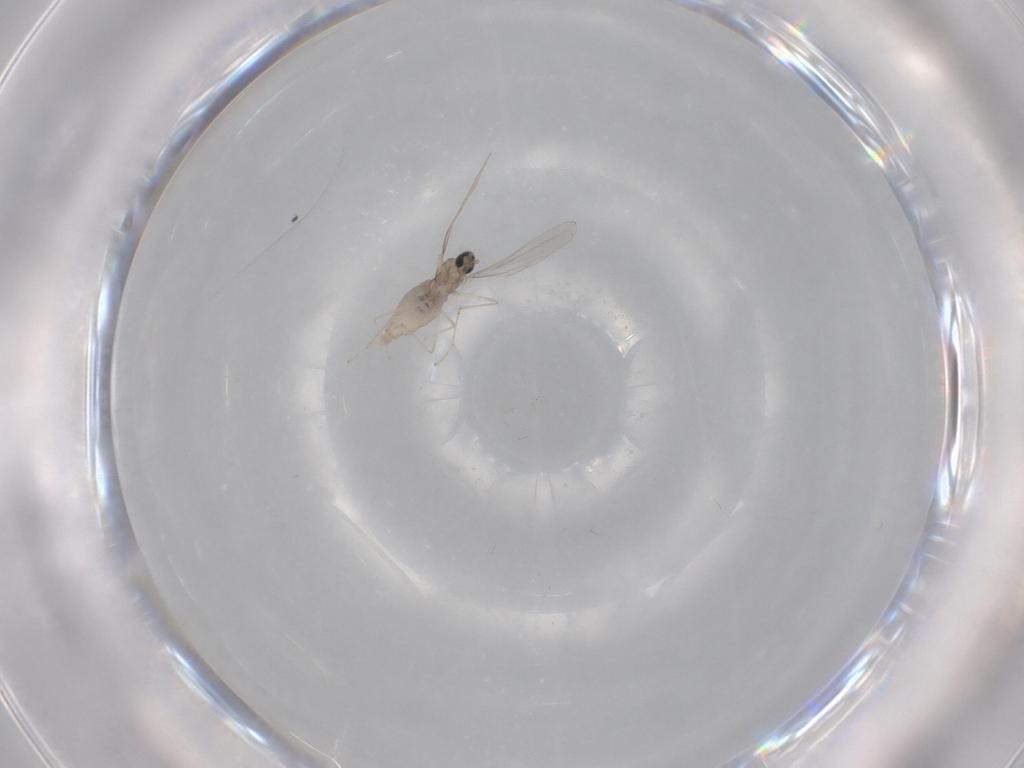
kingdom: Animalia
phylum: Arthropoda
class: Insecta
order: Diptera
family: Cecidomyiidae
